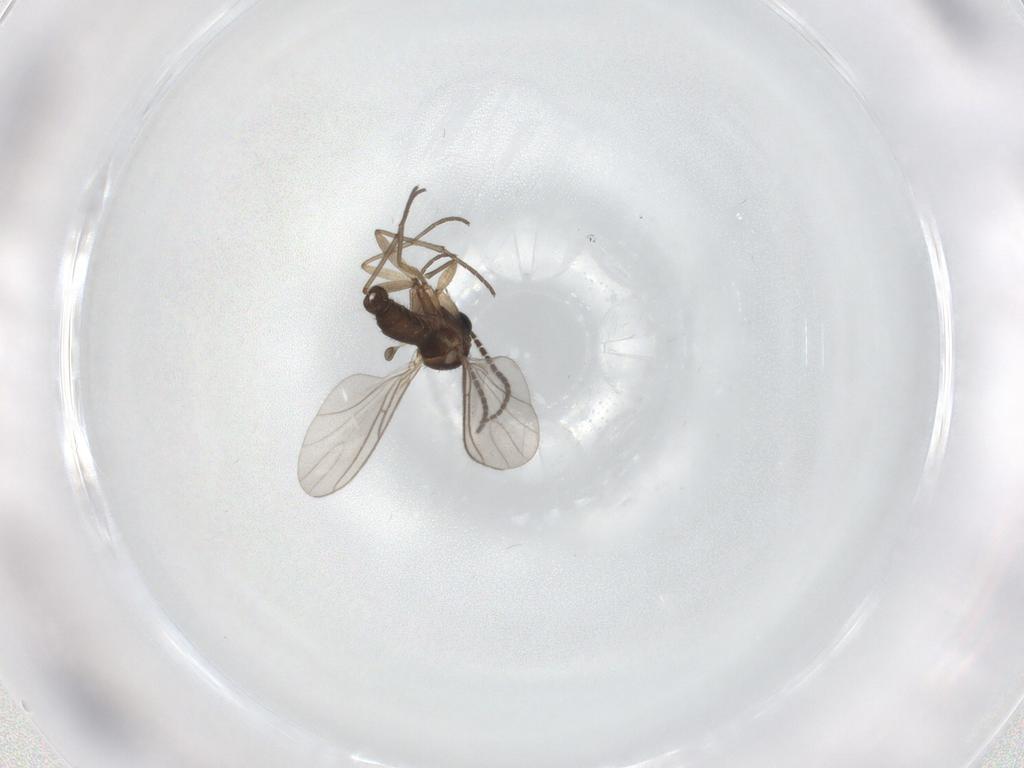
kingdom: Animalia
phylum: Arthropoda
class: Insecta
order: Diptera
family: Sciaridae
